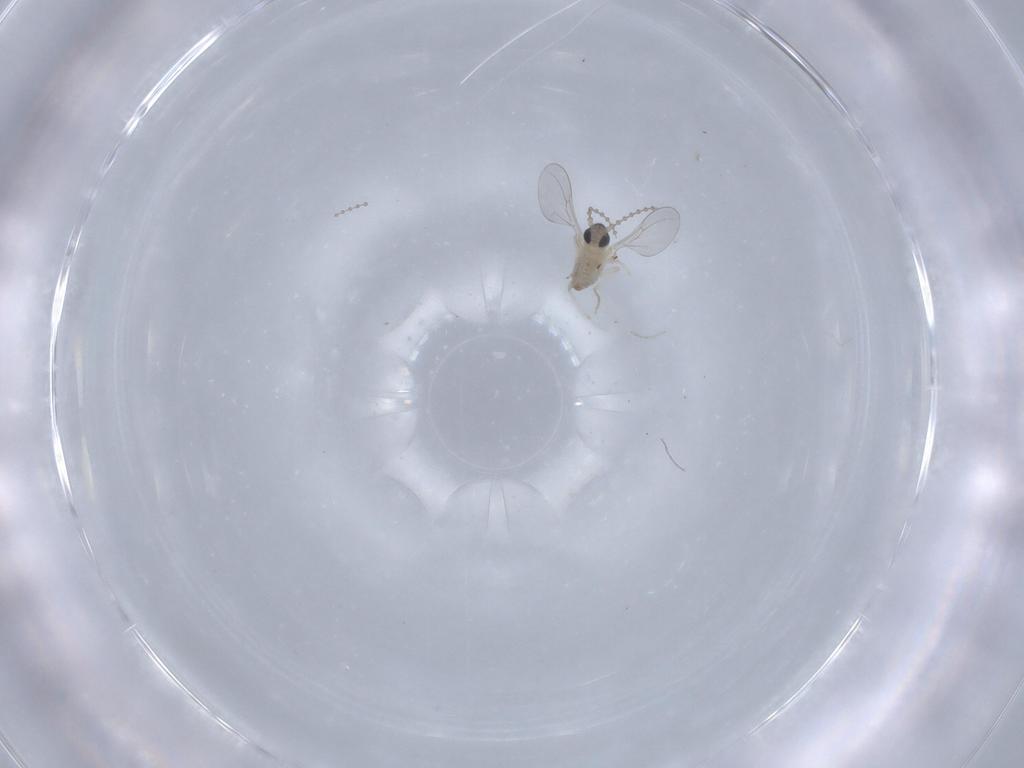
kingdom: Animalia
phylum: Arthropoda
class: Insecta
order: Diptera
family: Cecidomyiidae
